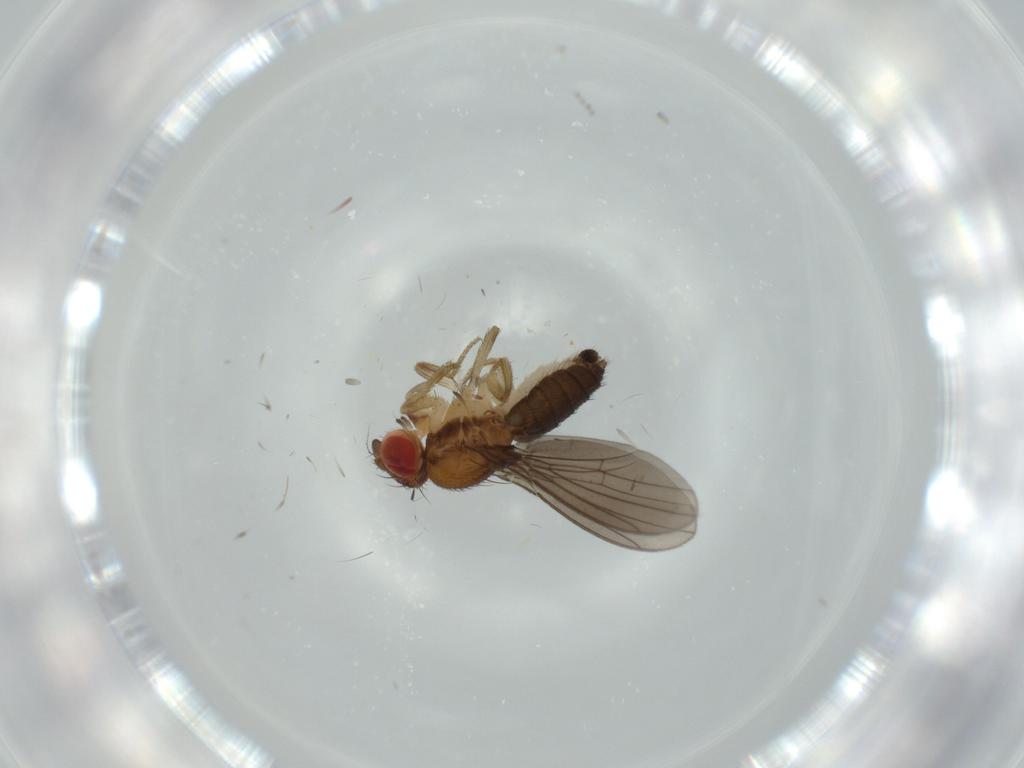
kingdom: Animalia
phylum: Arthropoda
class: Insecta
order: Diptera
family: Drosophilidae
